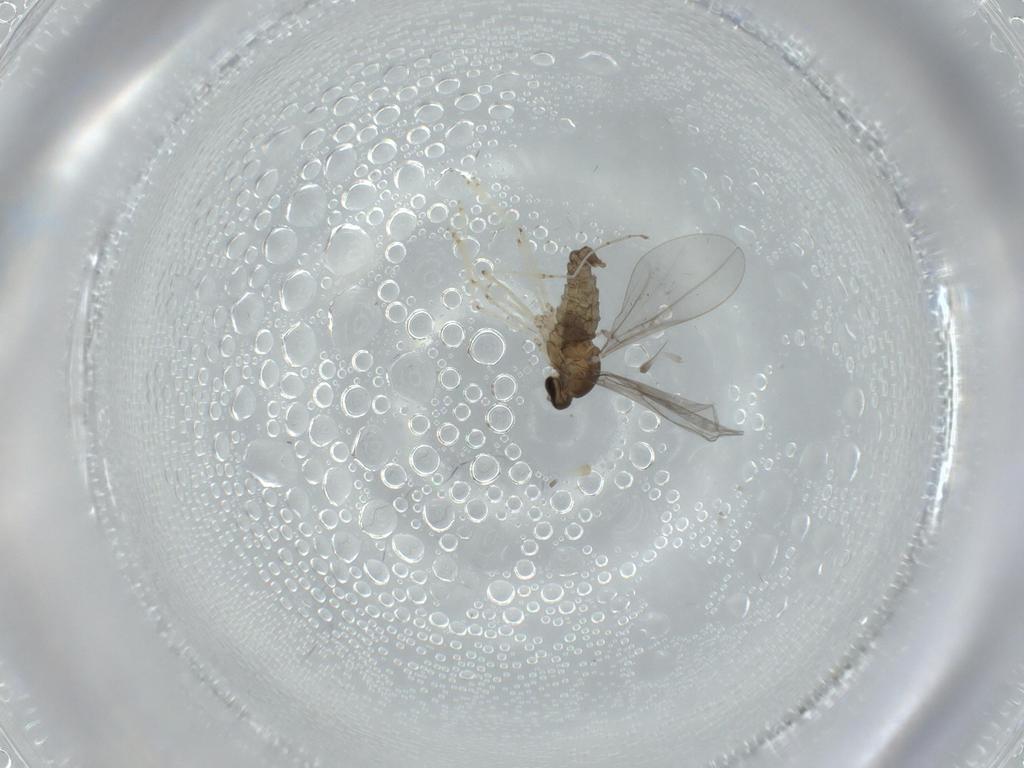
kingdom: Animalia
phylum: Arthropoda
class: Insecta
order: Diptera
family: Cecidomyiidae
